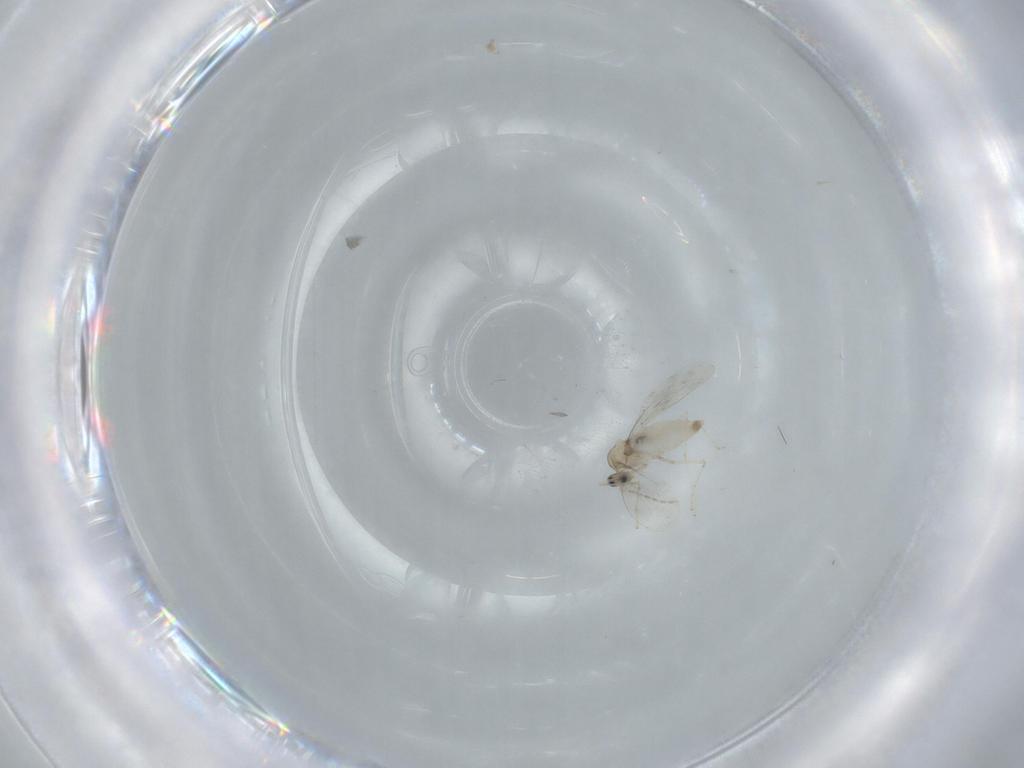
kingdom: Animalia
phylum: Arthropoda
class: Insecta
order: Diptera
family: Cecidomyiidae
